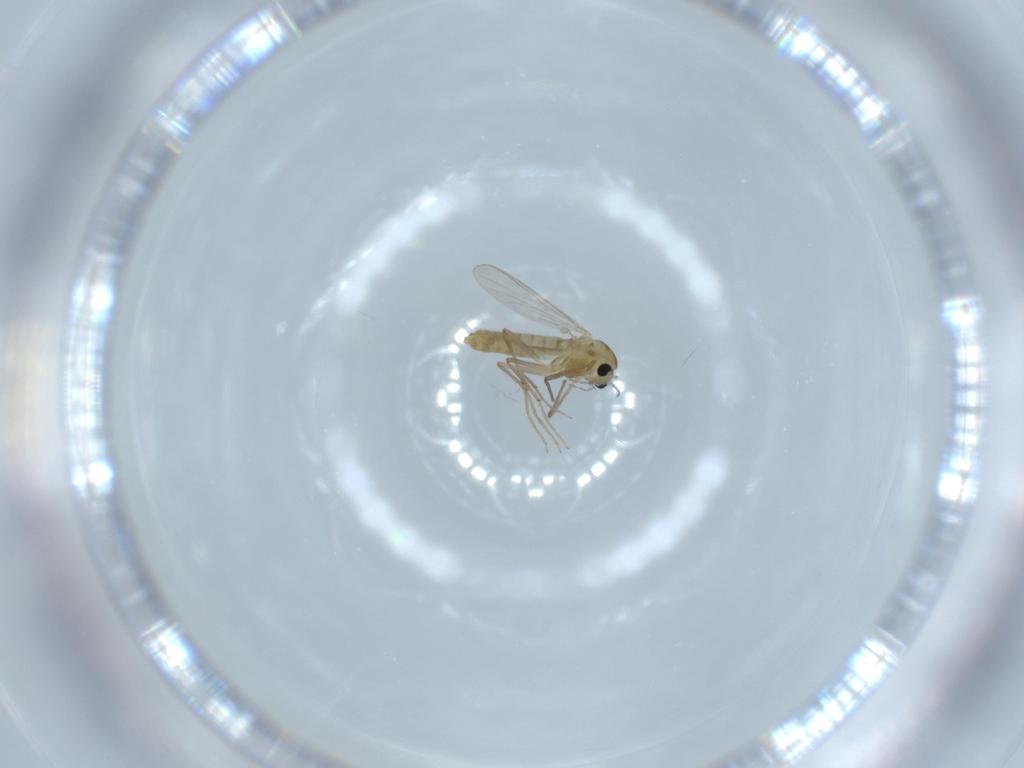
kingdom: Animalia
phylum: Arthropoda
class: Insecta
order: Diptera
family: Chironomidae
